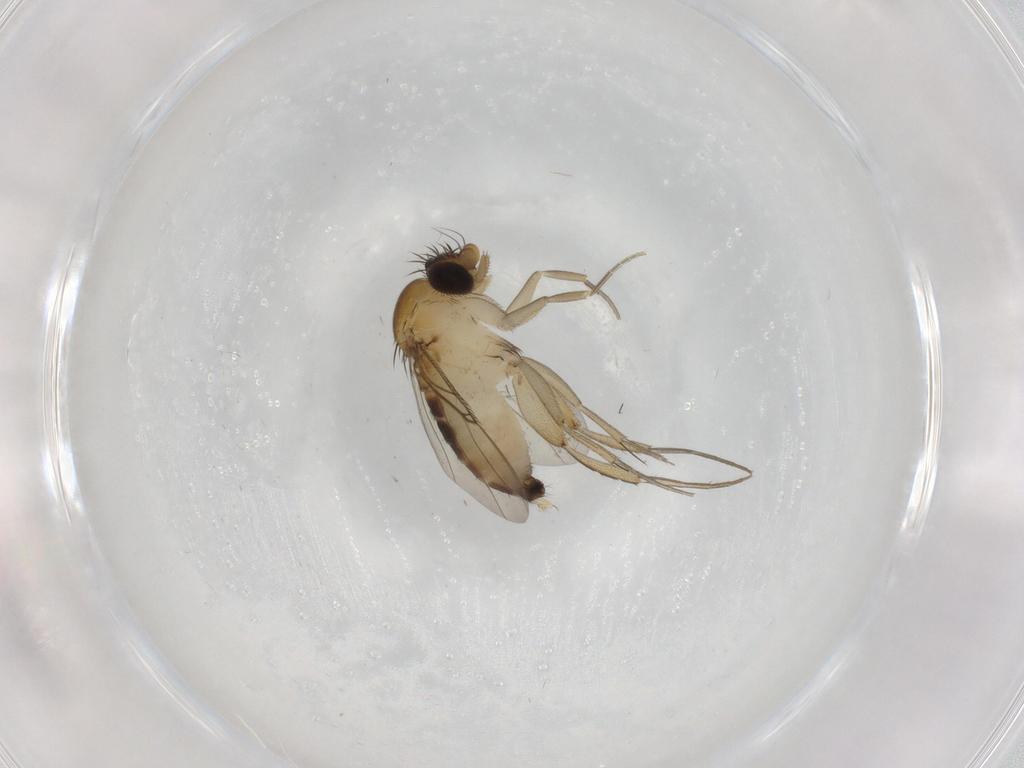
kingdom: Animalia
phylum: Arthropoda
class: Insecta
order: Diptera
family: Phoridae
